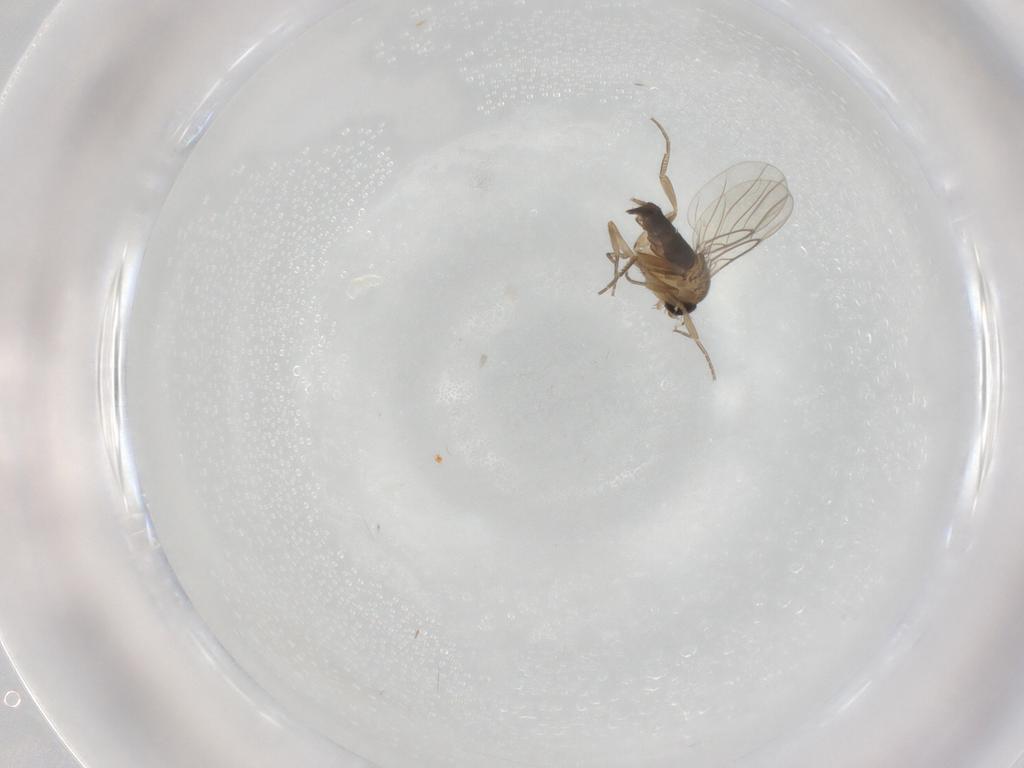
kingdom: Animalia
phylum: Arthropoda
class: Insecta
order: Diptera
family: Phoridae
